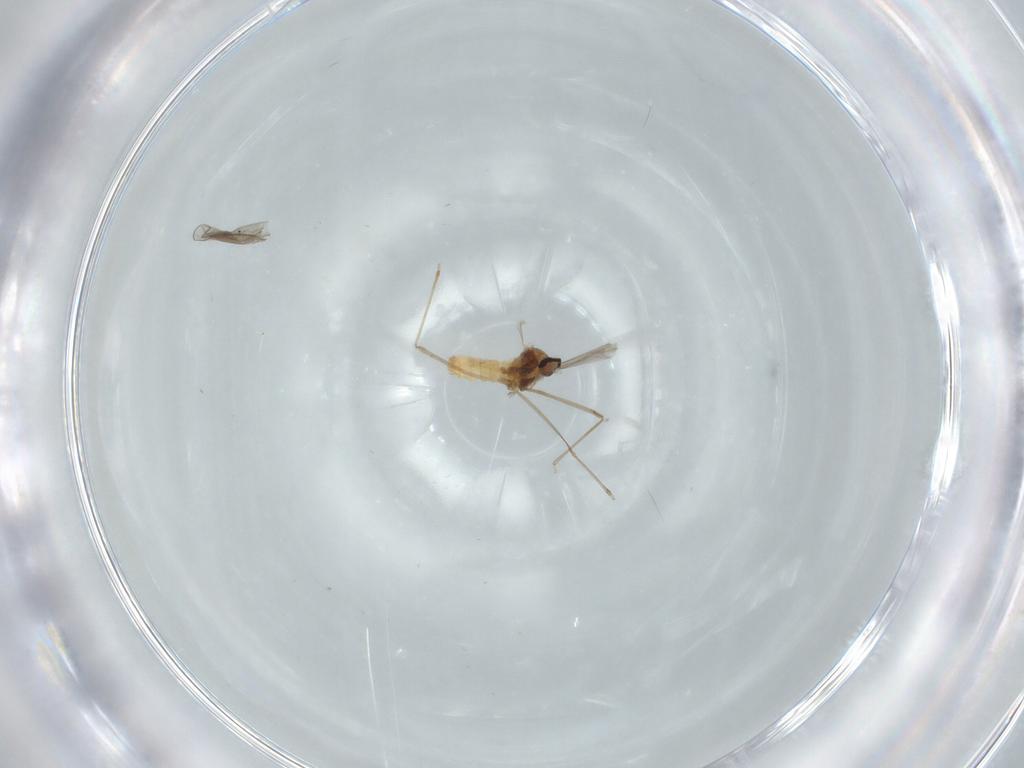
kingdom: Animalia
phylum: Arthropoda
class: Insecta
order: Diptera
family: Cecidomyiidae
